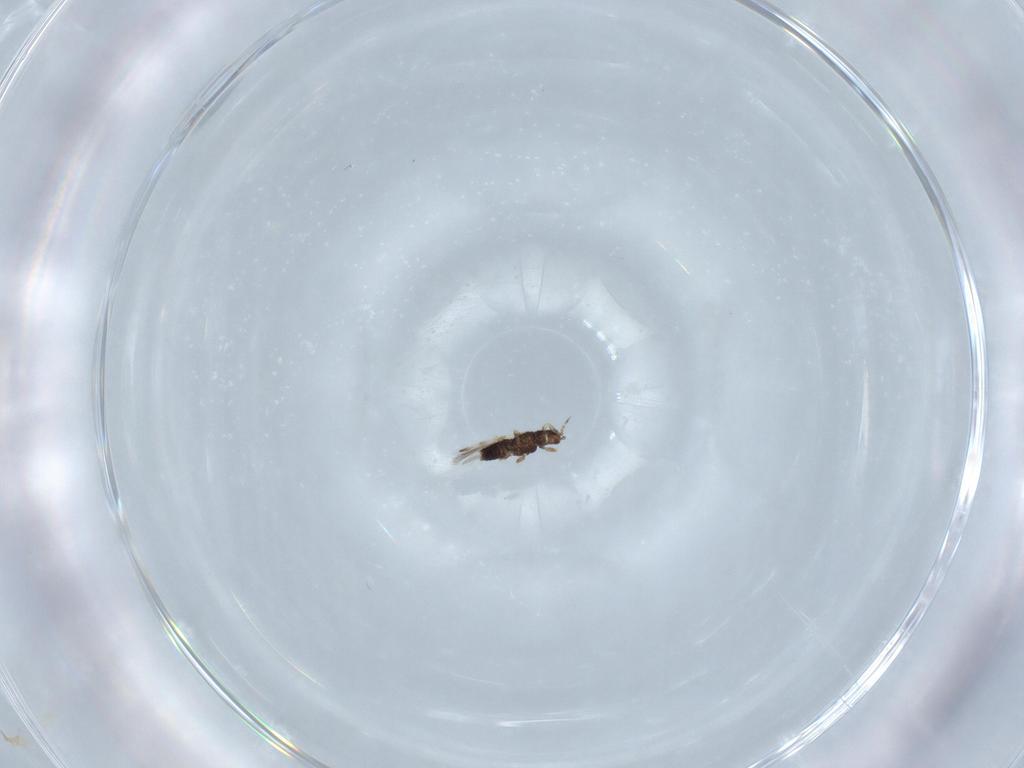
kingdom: Animalia
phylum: Arthropoda
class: Insecta
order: Thysanoptera
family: Thripidae
